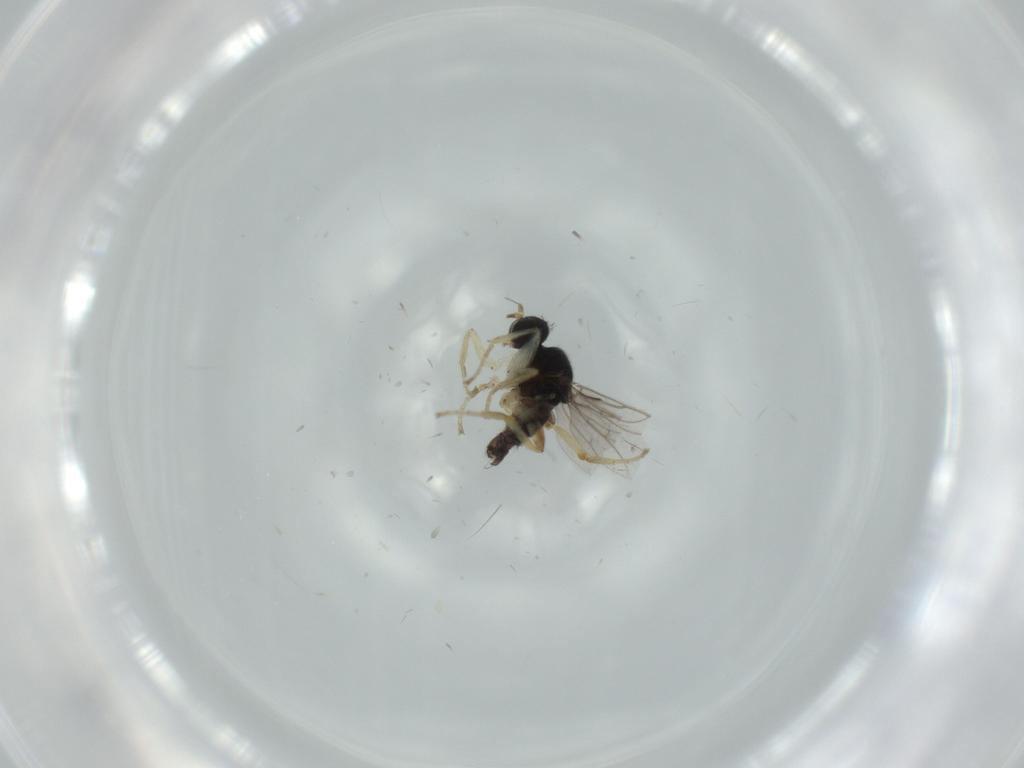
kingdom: Animalia
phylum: Arthropoda
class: Insecta
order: Diptera
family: Hybotidae
